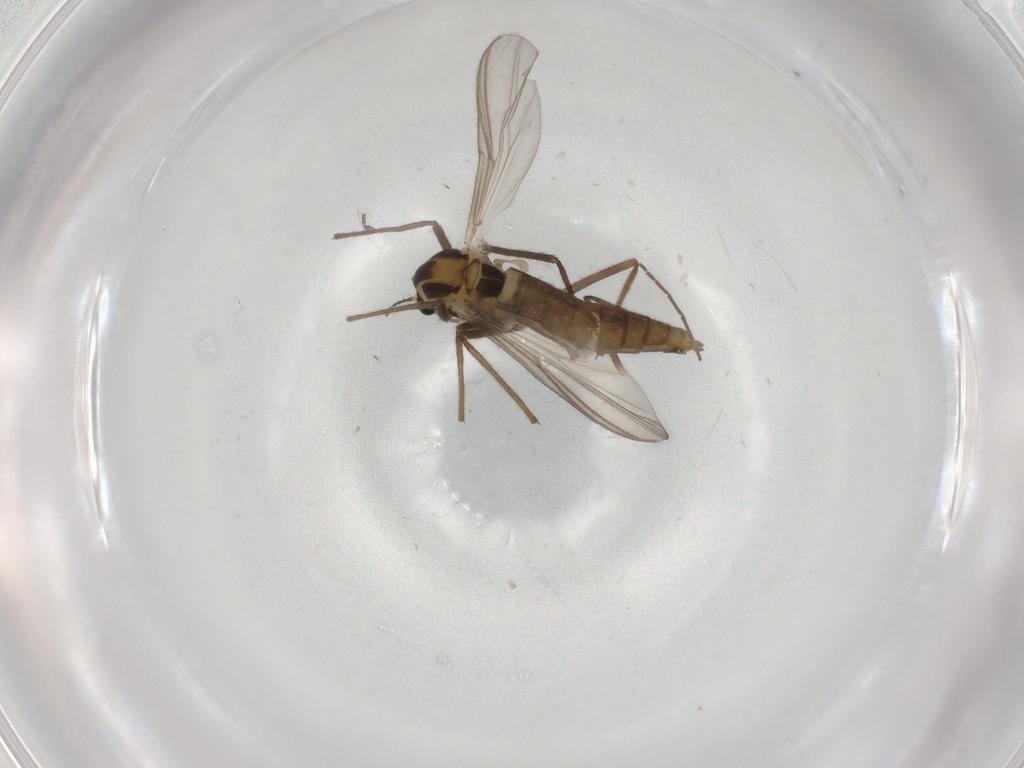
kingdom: Animalia
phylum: Arthropoda
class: Insecta
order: Diptera
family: Chironomidae
